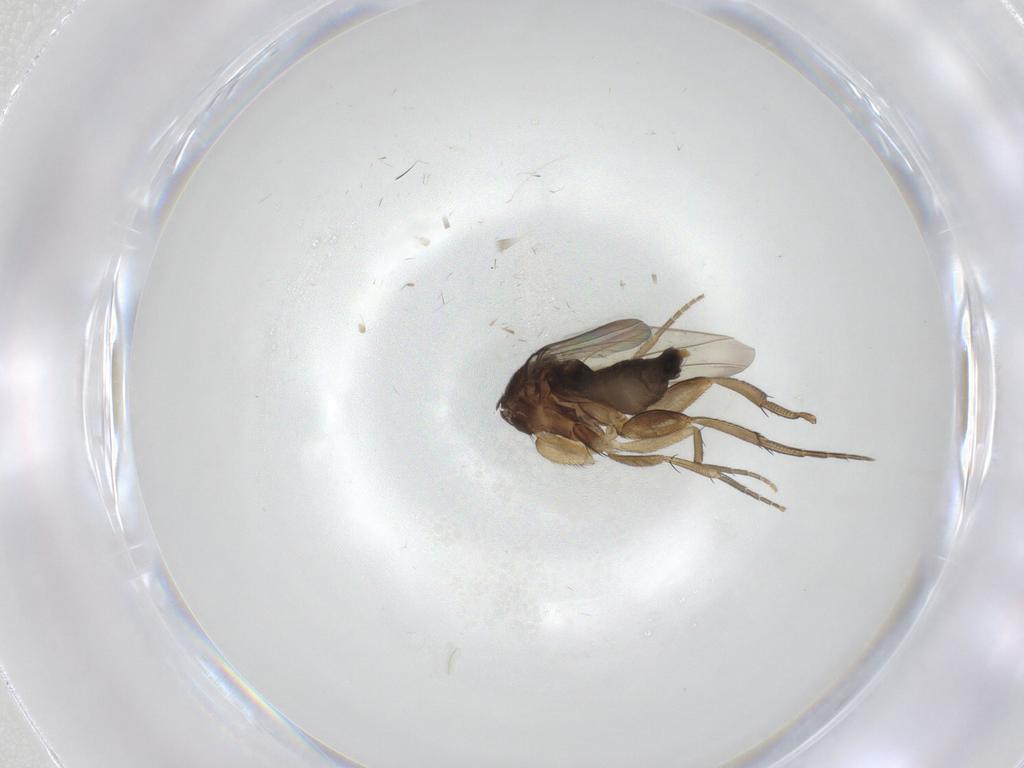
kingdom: Animalia
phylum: Arthropoda
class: Insecta
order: Diptera
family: Phoridae
